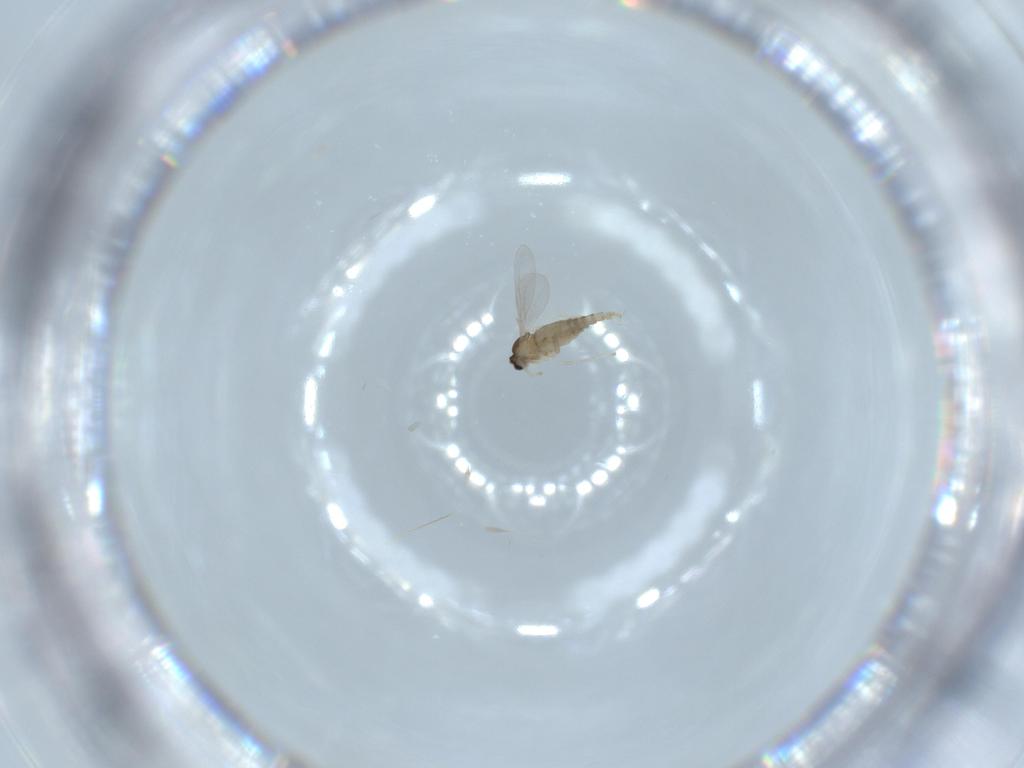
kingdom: Animalia
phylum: Arthropoda
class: Insecta
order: Diptera
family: Cecidomyiidae
